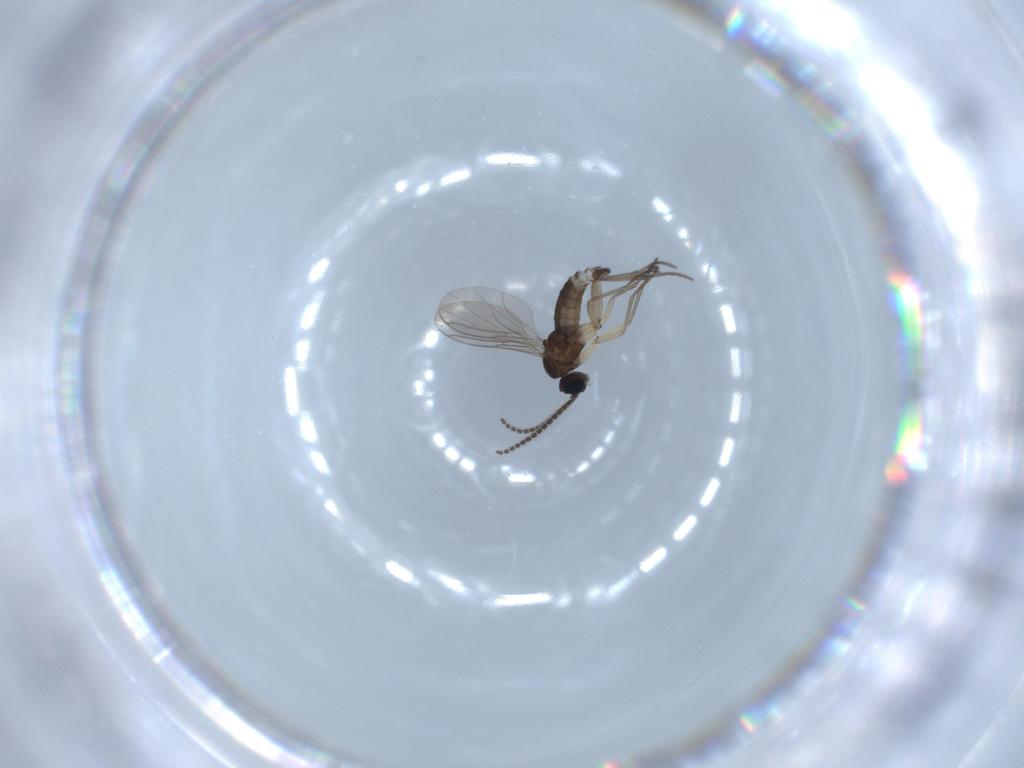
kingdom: Animalia
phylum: Arthropoda
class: Insecta
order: Diptera
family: Sciaridae
